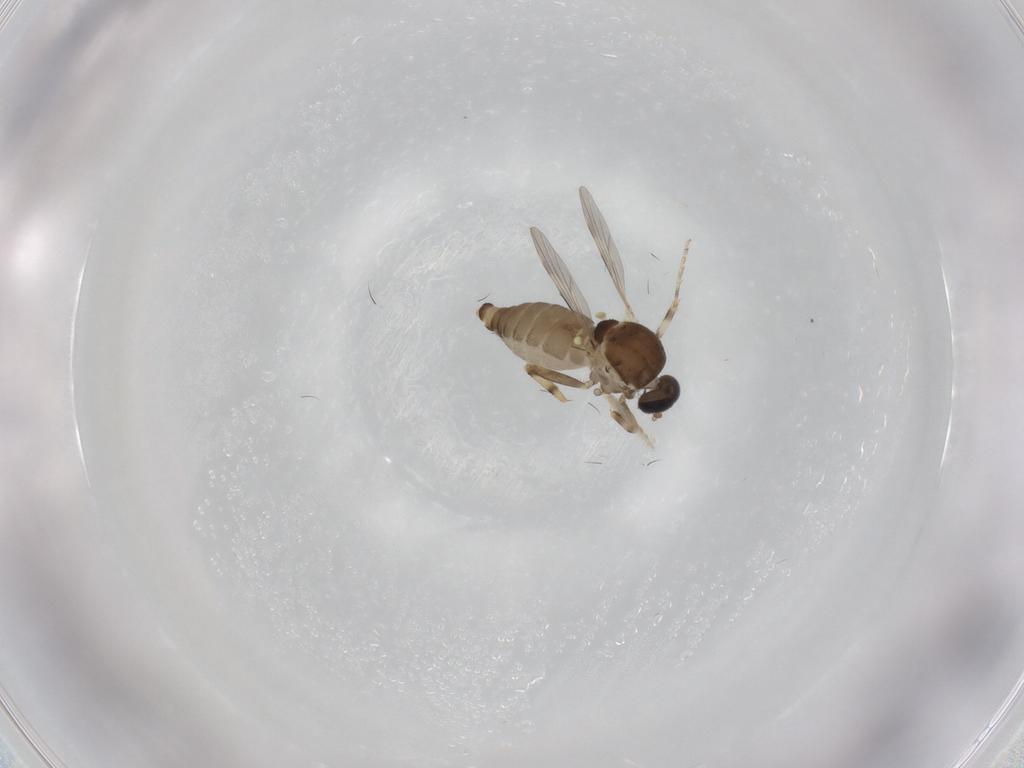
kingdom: Animalia
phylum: Arthropoda
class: Insecta
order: Diptera
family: Ceratopogonidae
